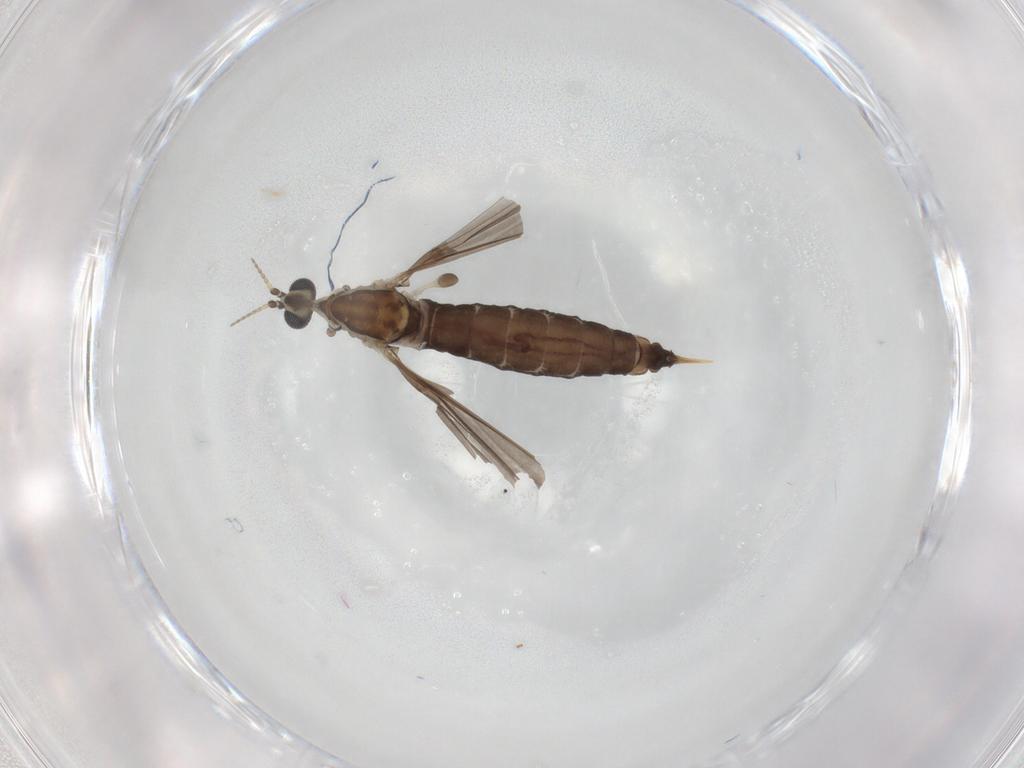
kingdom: Animalia
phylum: Arthropoda
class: Insecta
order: Diptera
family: Limoniidae
